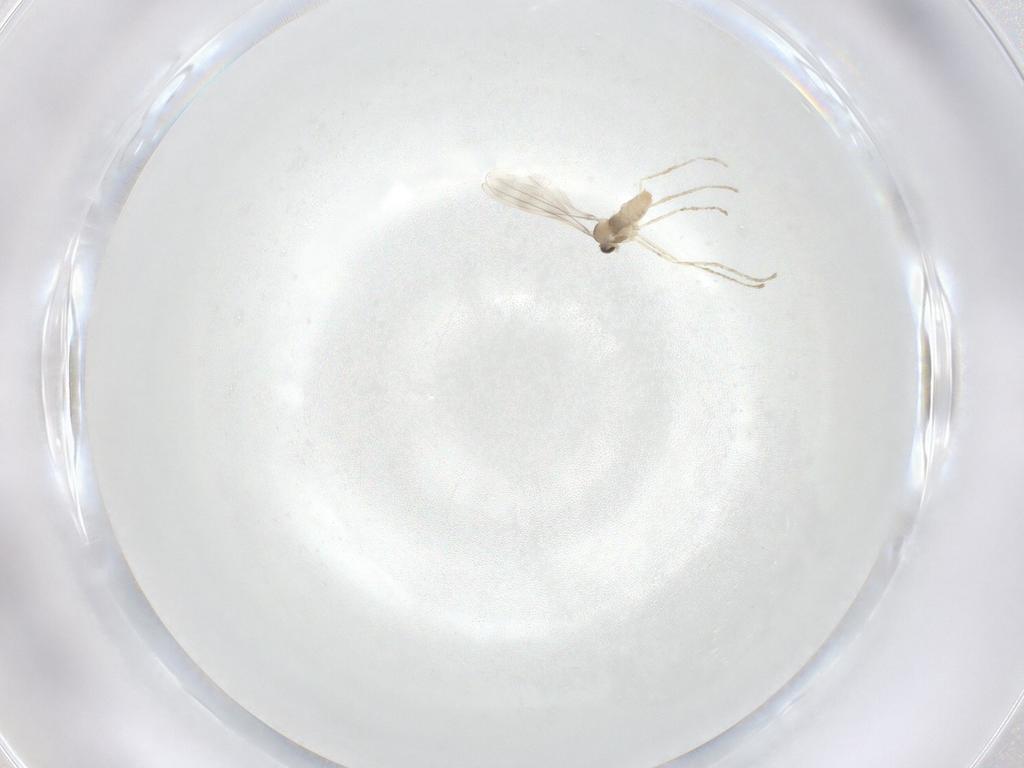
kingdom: Animalia
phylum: Arthropoda
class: Insecta
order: Diptera
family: Cecidomyiidae
